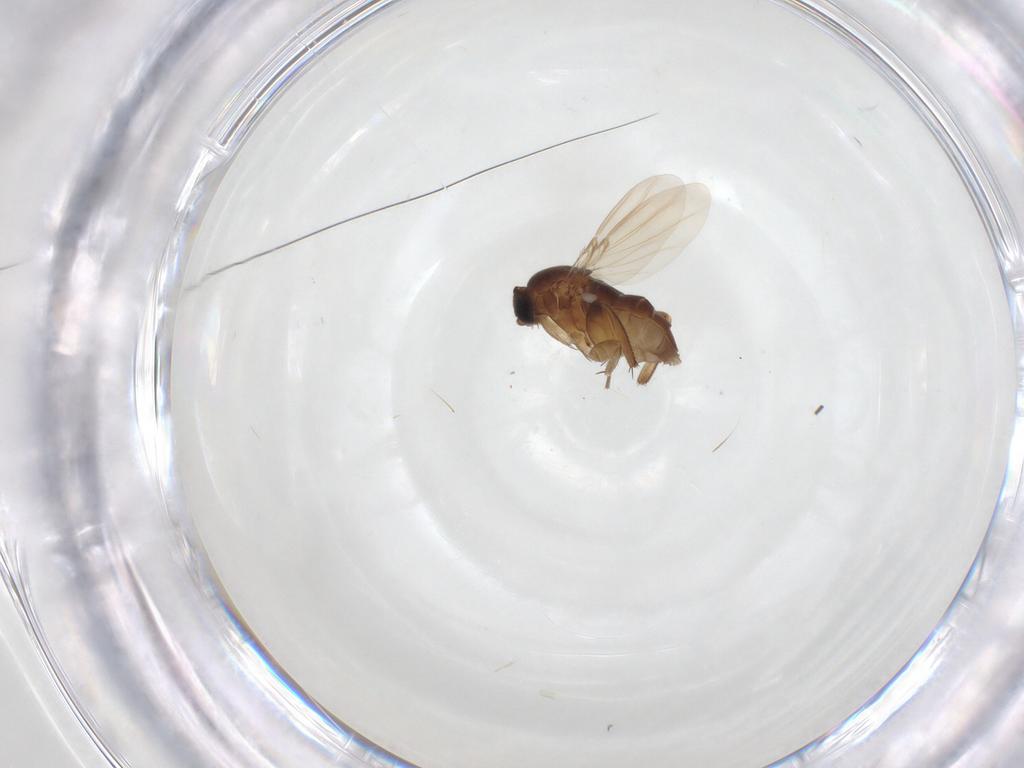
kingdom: Animalia
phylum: Arthropoda
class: Insecta
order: Diptera
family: Phoridae
